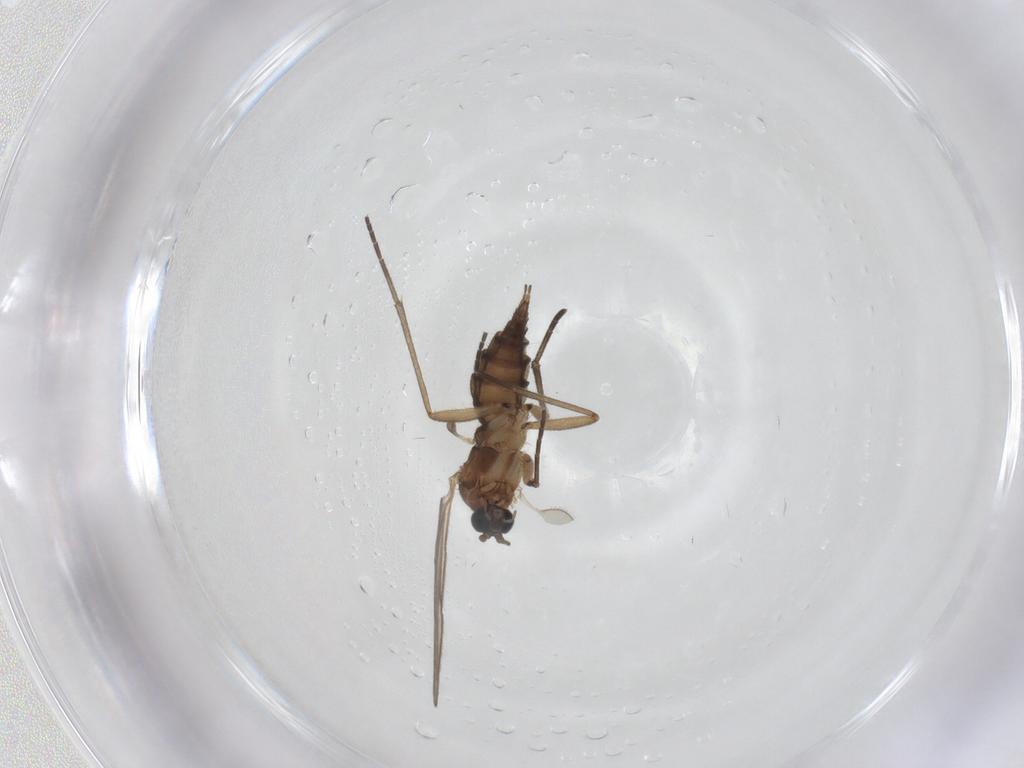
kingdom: Animalia
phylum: Arthropoda
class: Insecta
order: Diptera
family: Sciaridae
